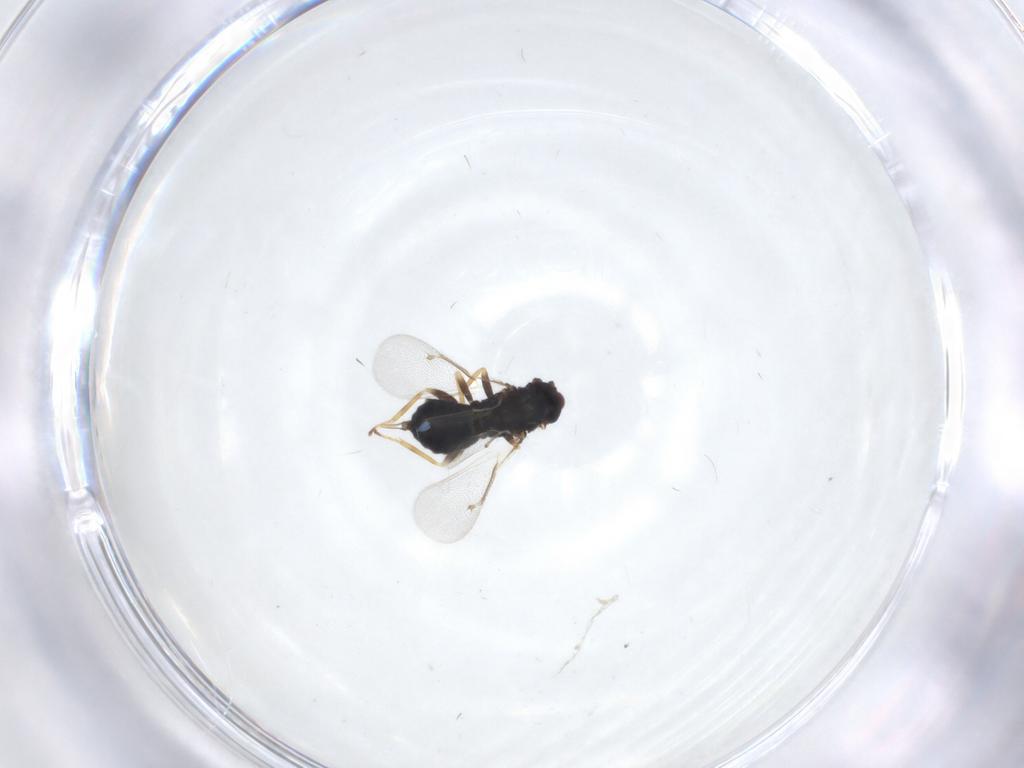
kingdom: Animalia
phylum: Arthropoda
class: Insecta
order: Hymenoptera
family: Eulophidae
